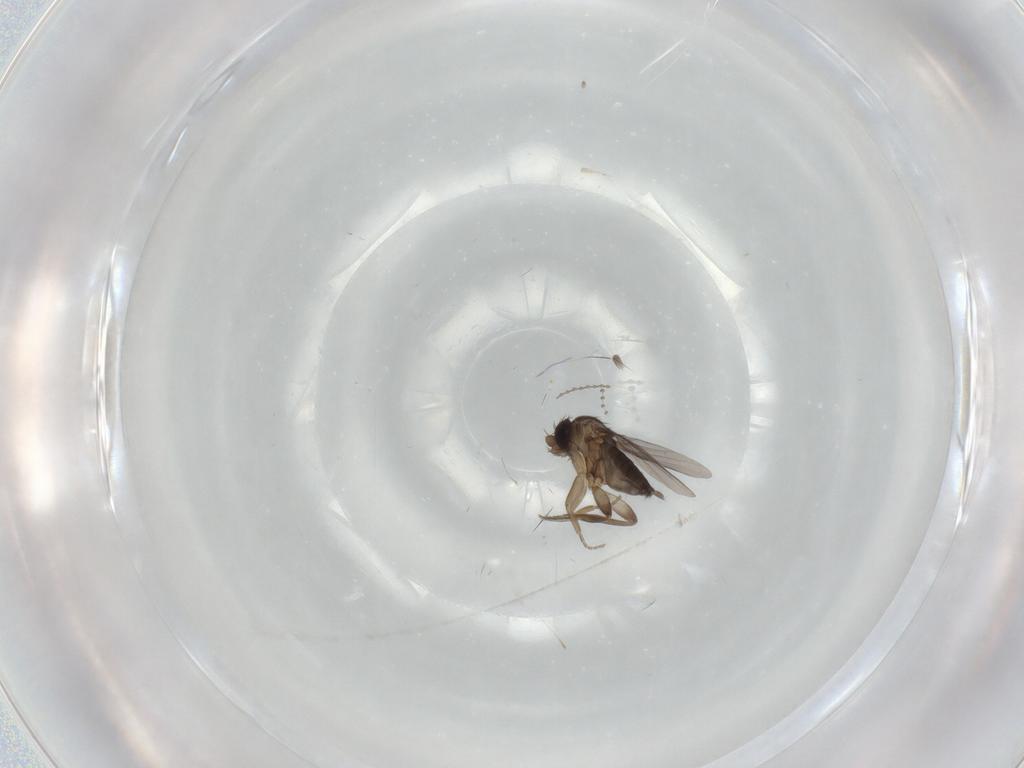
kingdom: Animalia
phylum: Arthropoda
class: Insecta
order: Diptera
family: Phoridae
